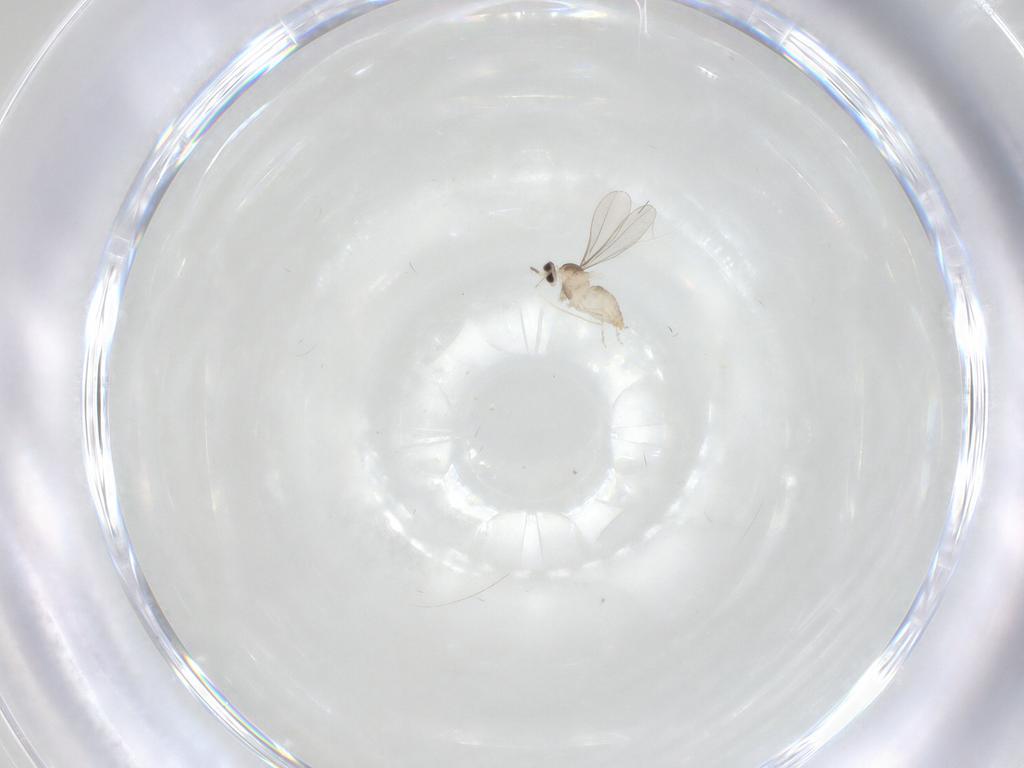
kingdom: Animalia
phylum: Arthropoda
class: Insecta
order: Diptera
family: Cecidomyiidae
